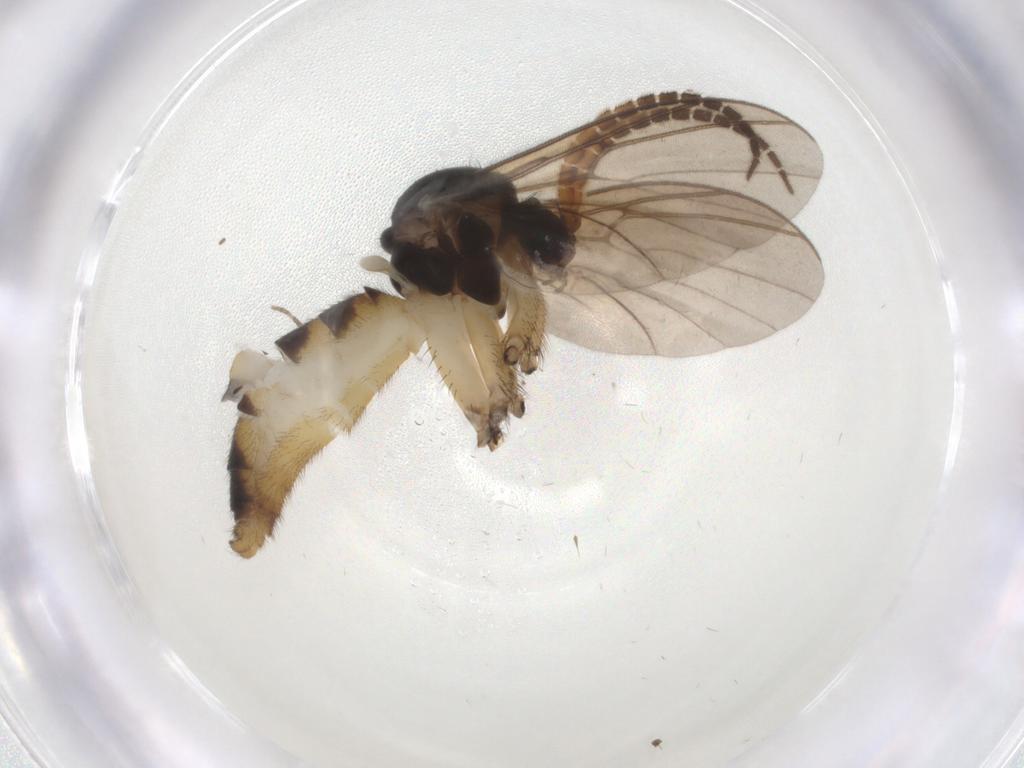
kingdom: Animalia
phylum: Arthropoda
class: Insecta
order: Diptera
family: Mycetophilidae
